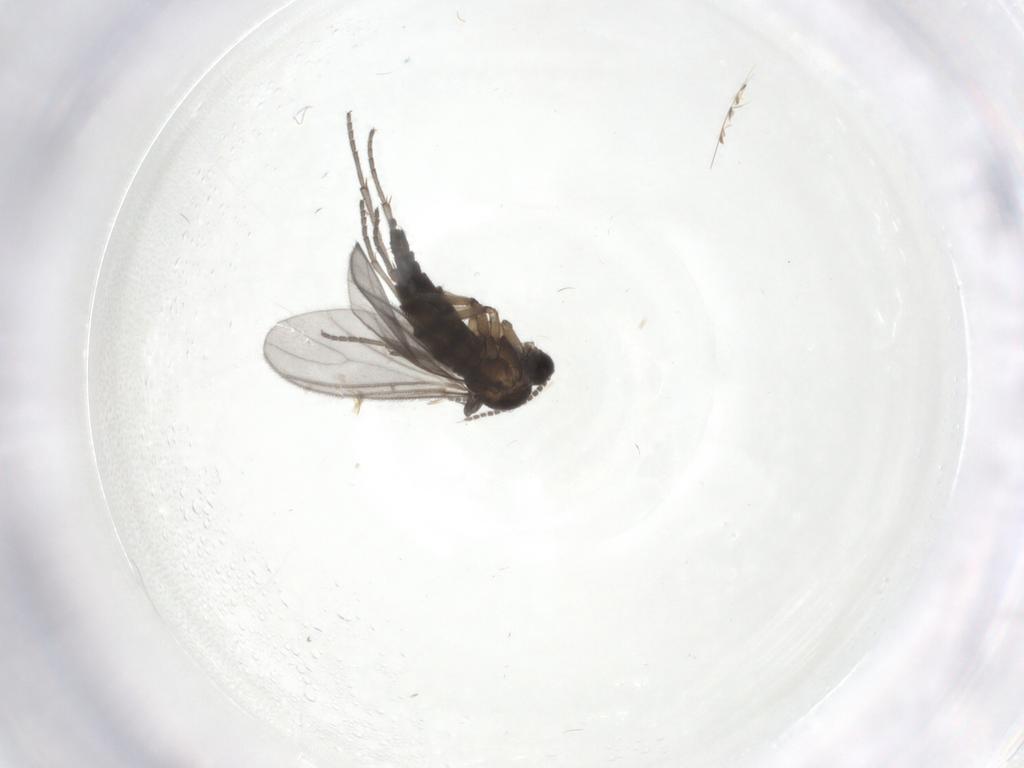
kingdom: Animalia
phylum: Arthropoda
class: Insecta
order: Diptera
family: Sciaridae
